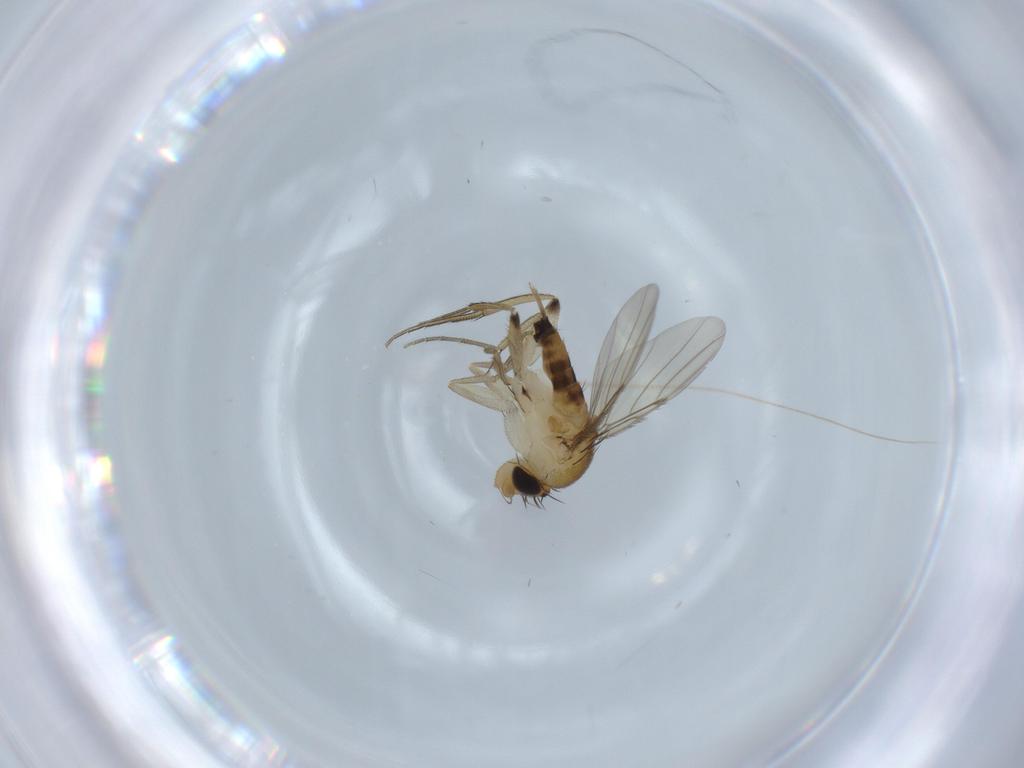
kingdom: Animalia
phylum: Arthropoda
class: Insecta
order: Diptera
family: Phoridae
